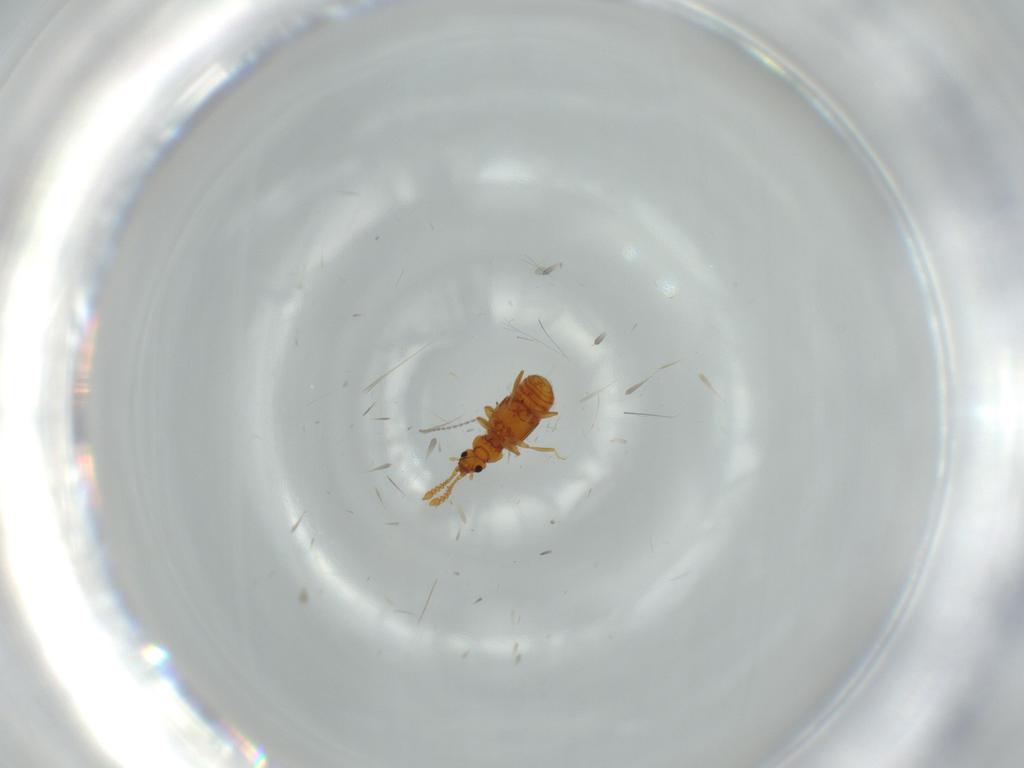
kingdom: Animalia
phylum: Arthropoda
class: Insecta
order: Coleoptera
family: Staphylinidae
